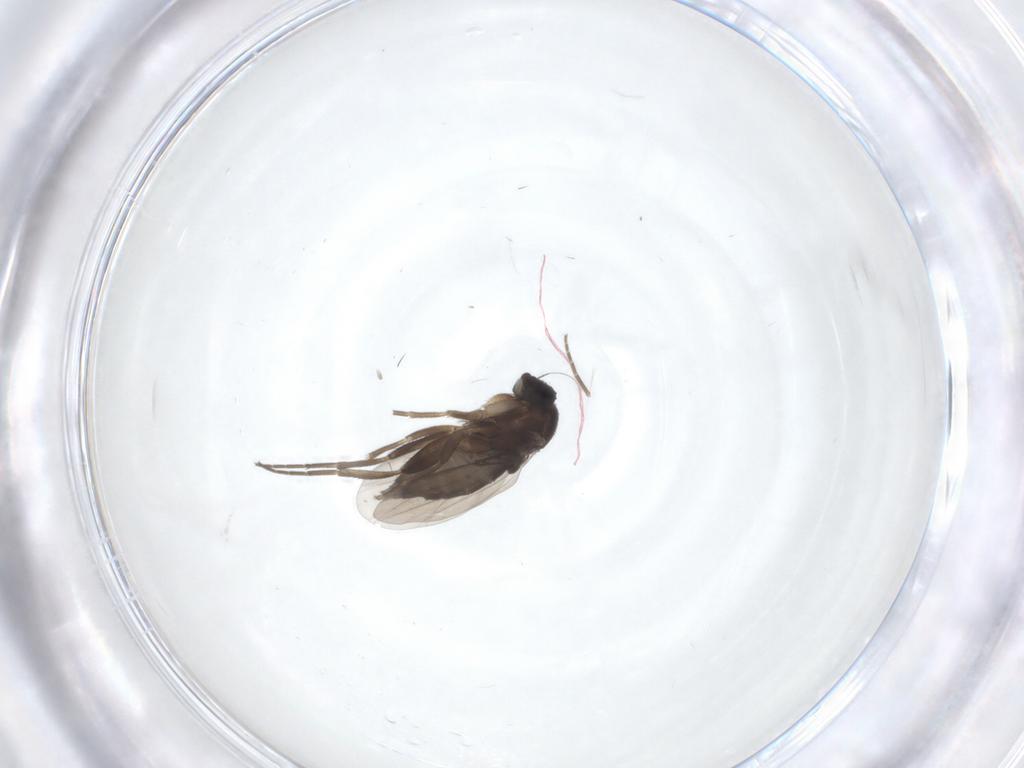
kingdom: Animalia
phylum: Arthropoda
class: Insecta
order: Diptera
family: Phoridae
